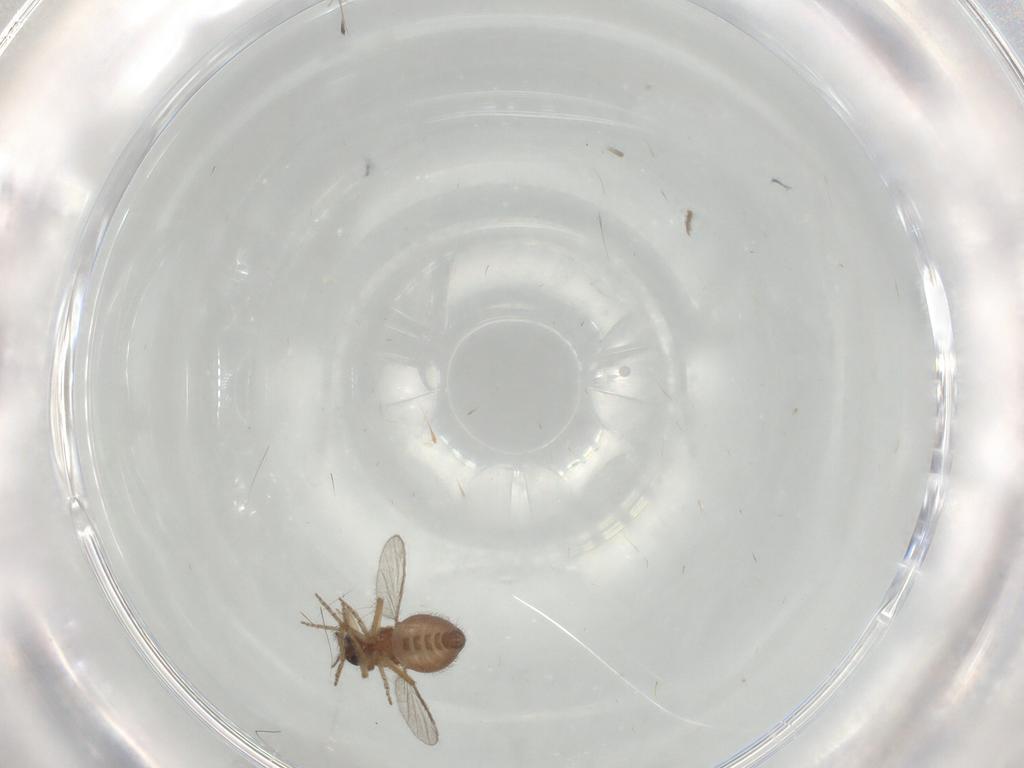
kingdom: Animalia
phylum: Arthropoda
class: Insecta
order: Diptera
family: Ceratopogonidae
